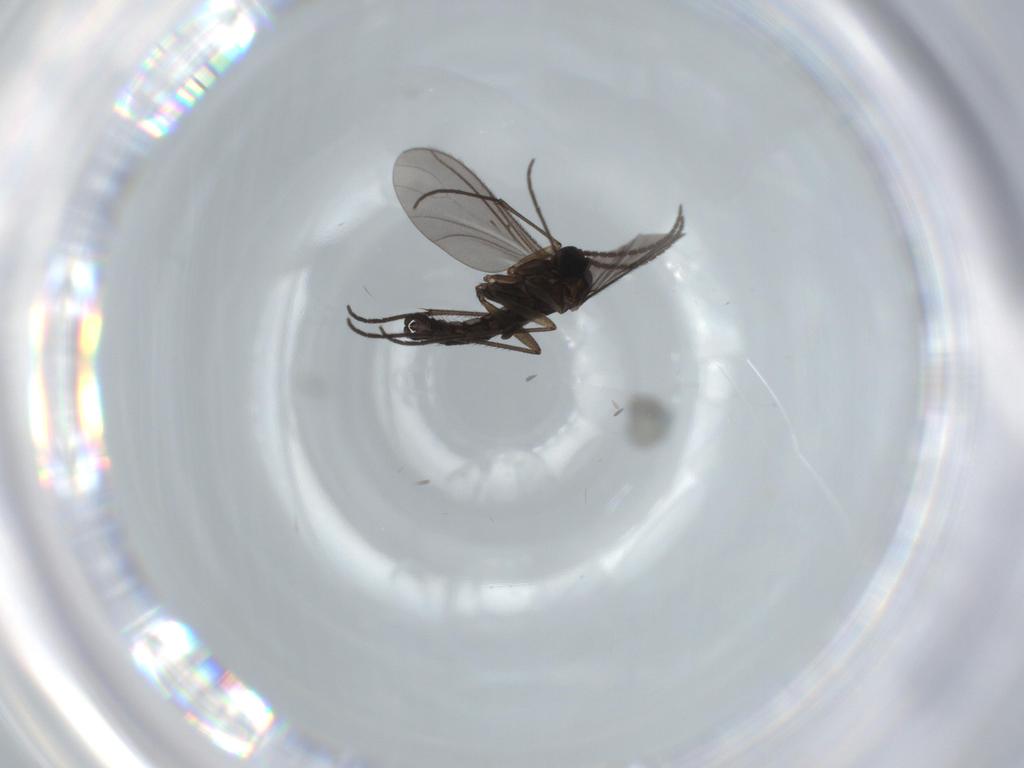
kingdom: Animalia
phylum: Arthropoda
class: Insecta
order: Diptera
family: Sciaridae
